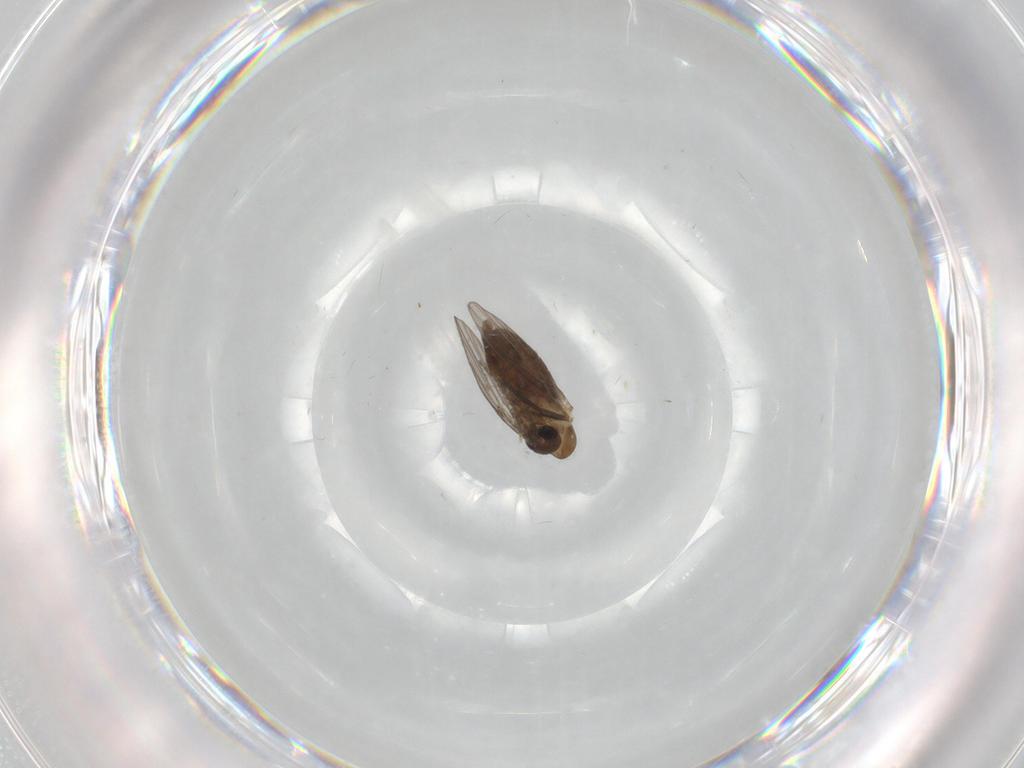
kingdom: Animalia
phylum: Arthropoda
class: Insecta
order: Diptera
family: Psychodidae
